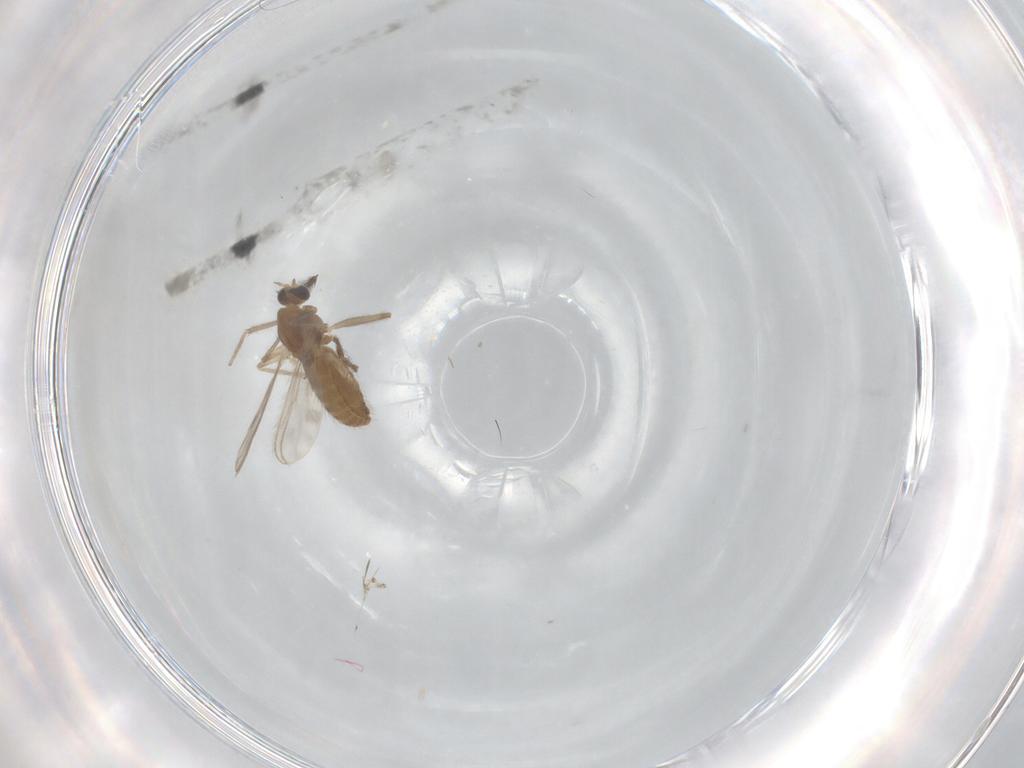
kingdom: Animalia
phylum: Arthropoda
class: Insecta
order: Diptera
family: Chironomidae
